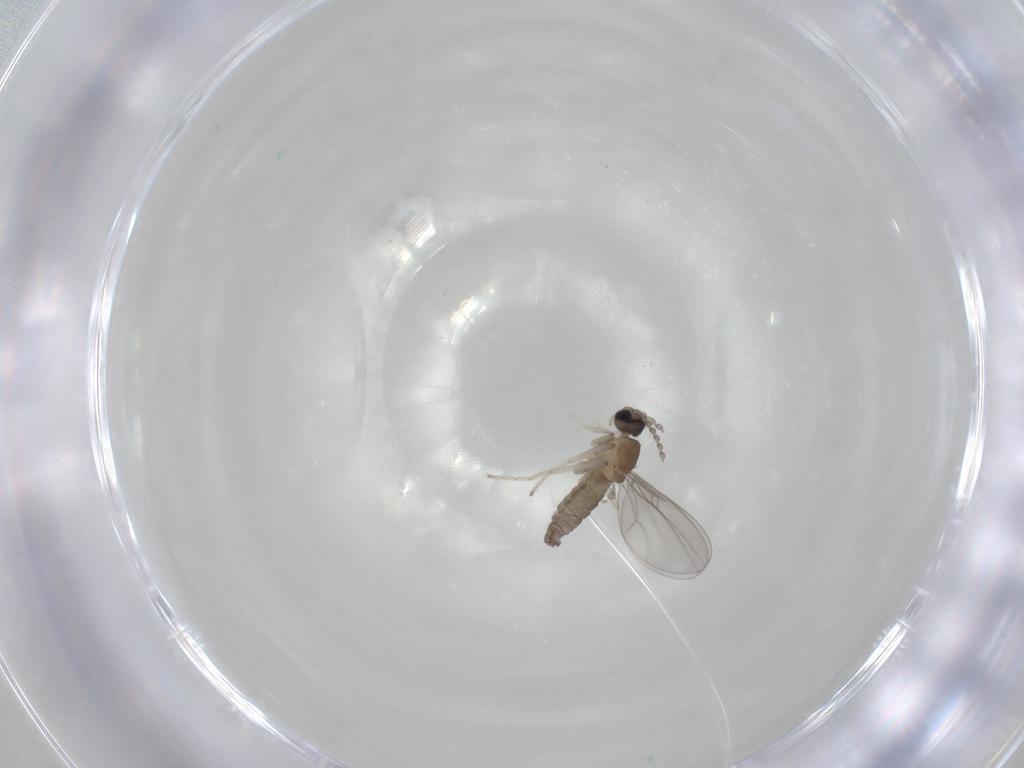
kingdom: Animalia
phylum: Arthropoda
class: Insecta
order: Diptera
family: Cecidomyiidae
